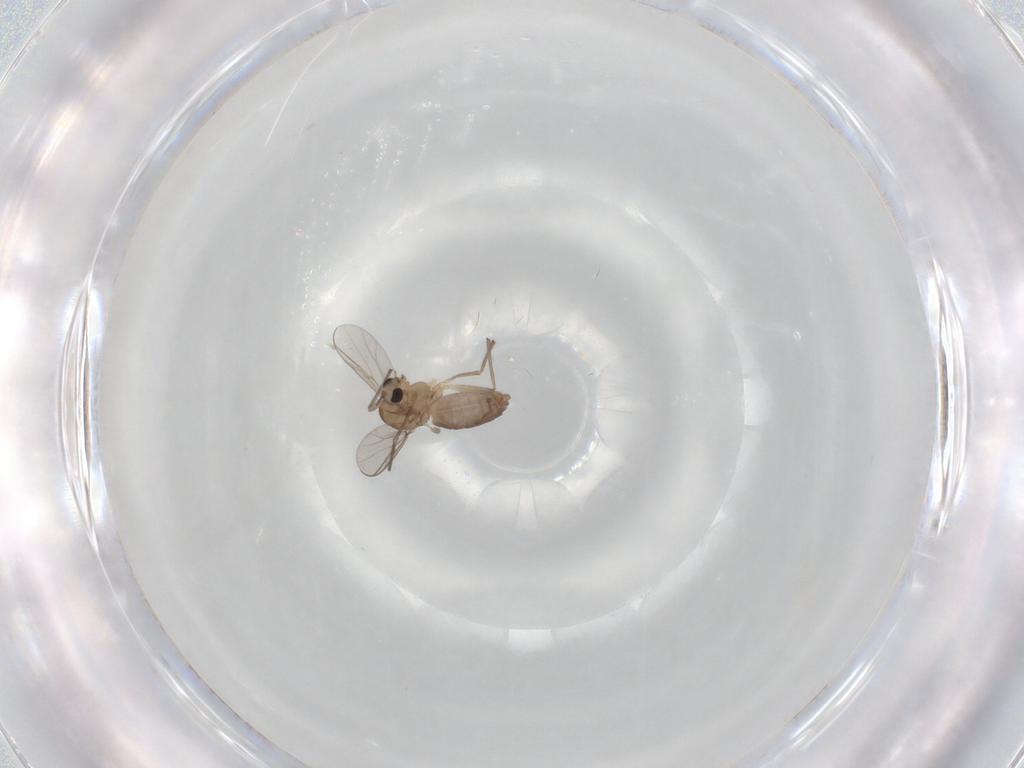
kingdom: Animalia
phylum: Arthropoda
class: Insecta
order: Diptera
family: Chironomidae
